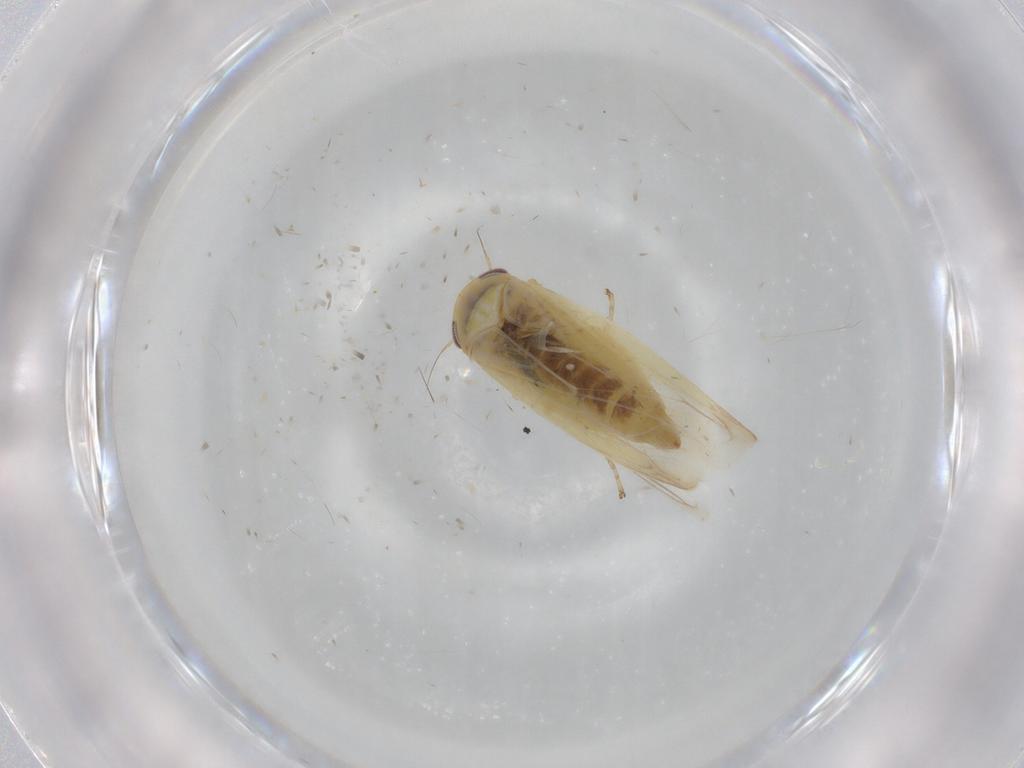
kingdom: Animalia
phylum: Arthropoda
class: Insecta
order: Hemiptera
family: Cicadellidae
